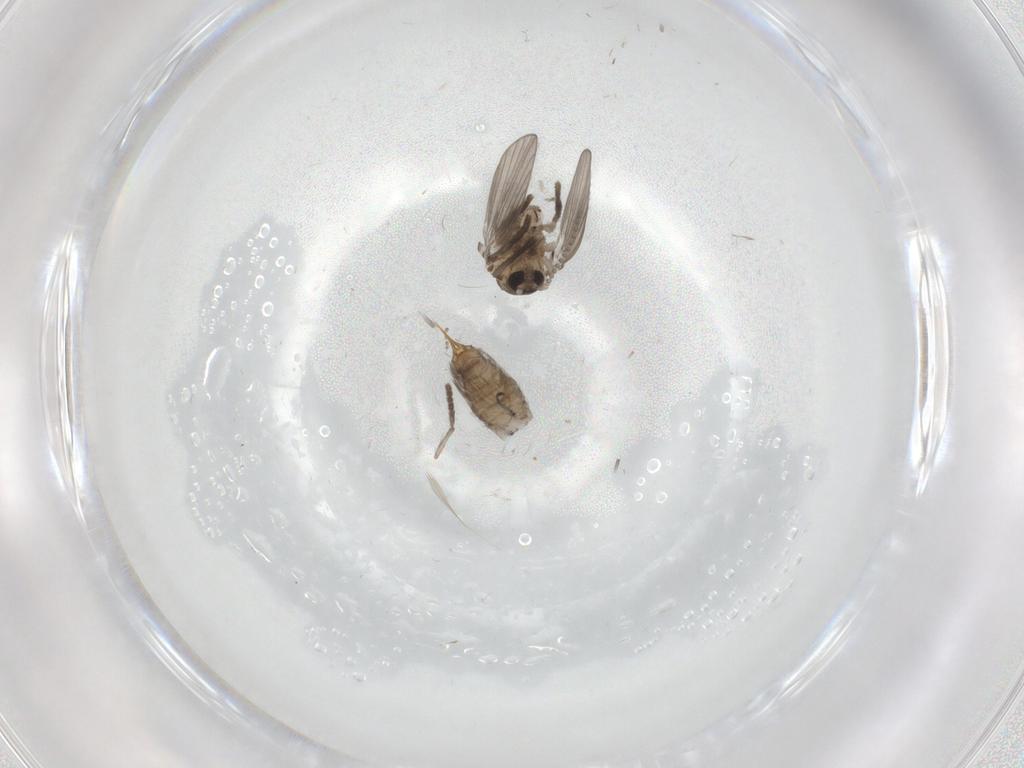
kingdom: Animalia
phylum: Arthropoda
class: Insecta
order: Diptera
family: Psychodidae
